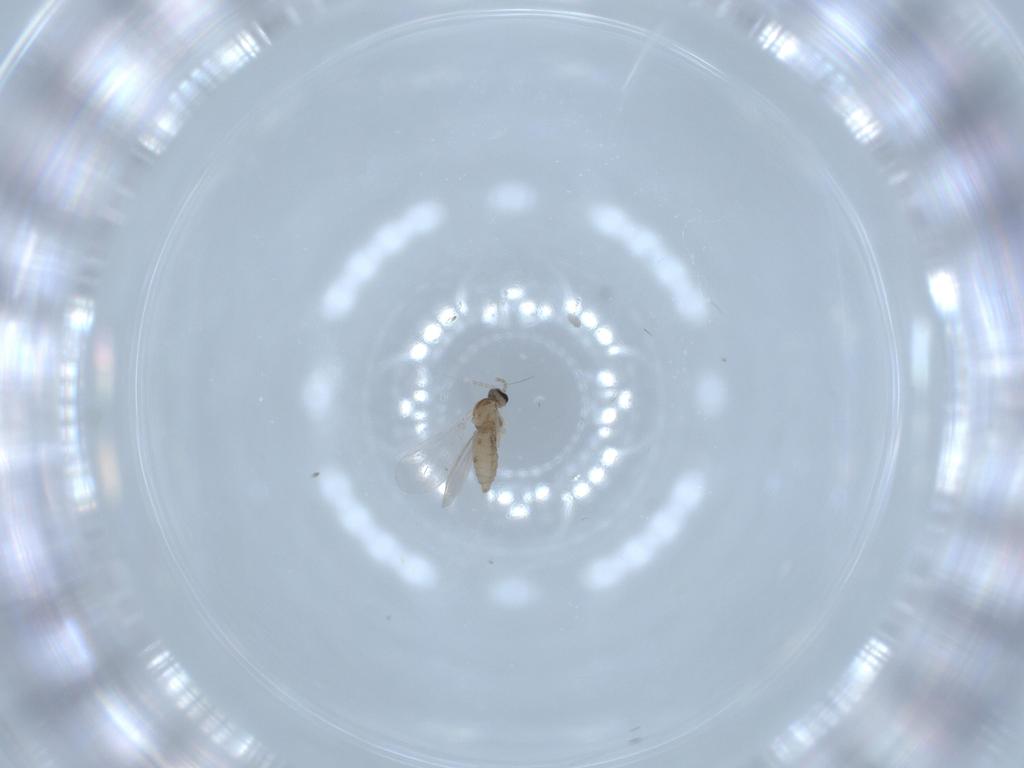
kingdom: Animalia
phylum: Arthropoda
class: Insecta
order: Diptera
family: Cecidomyiidae
